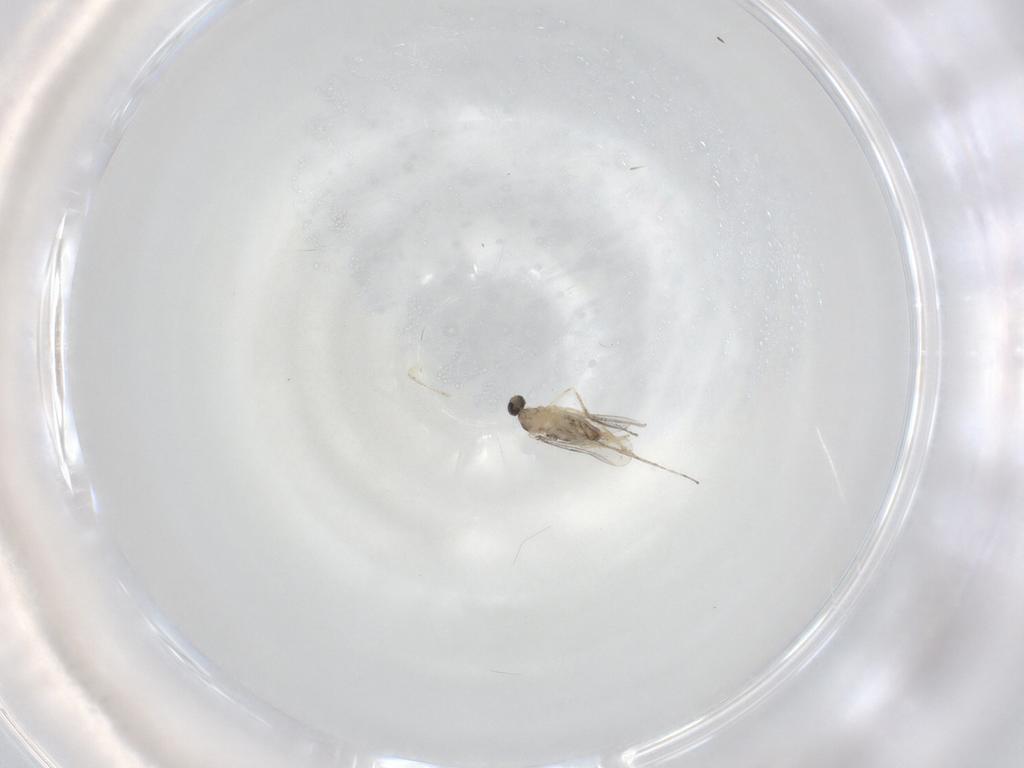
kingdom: Animalia
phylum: Arthropoda
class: Insecta
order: Diptera
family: Cecidomyiidae
